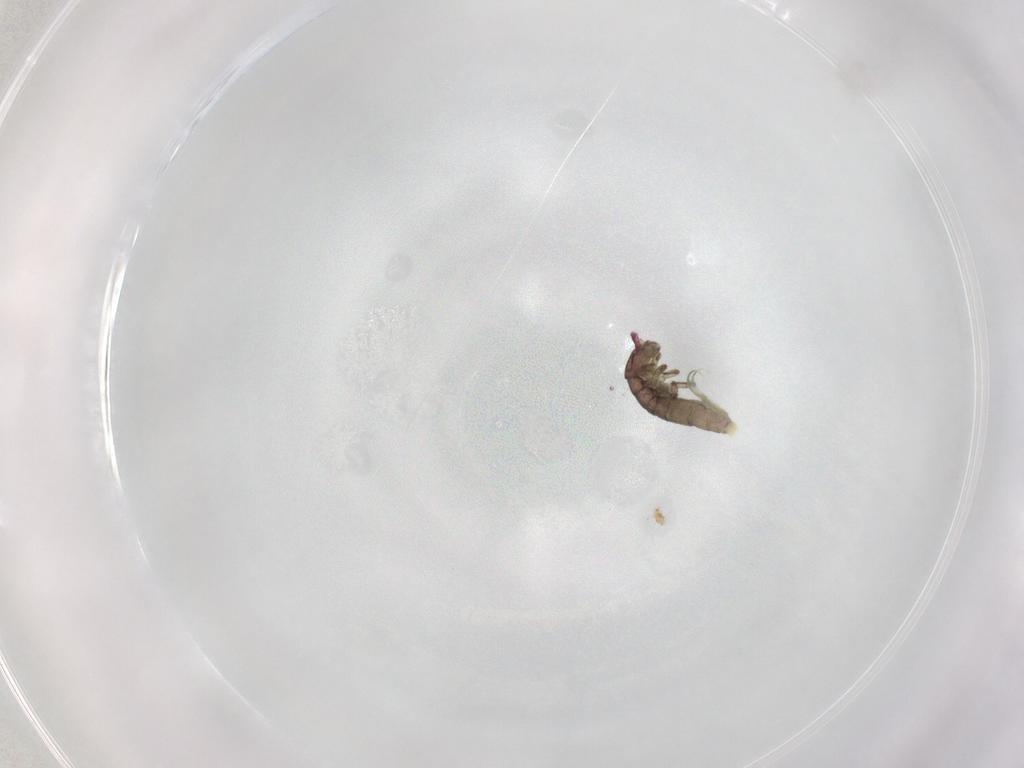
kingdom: Animalia
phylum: Arthropoda
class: Collembola
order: Entomobryomorpha
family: Isotomidae
